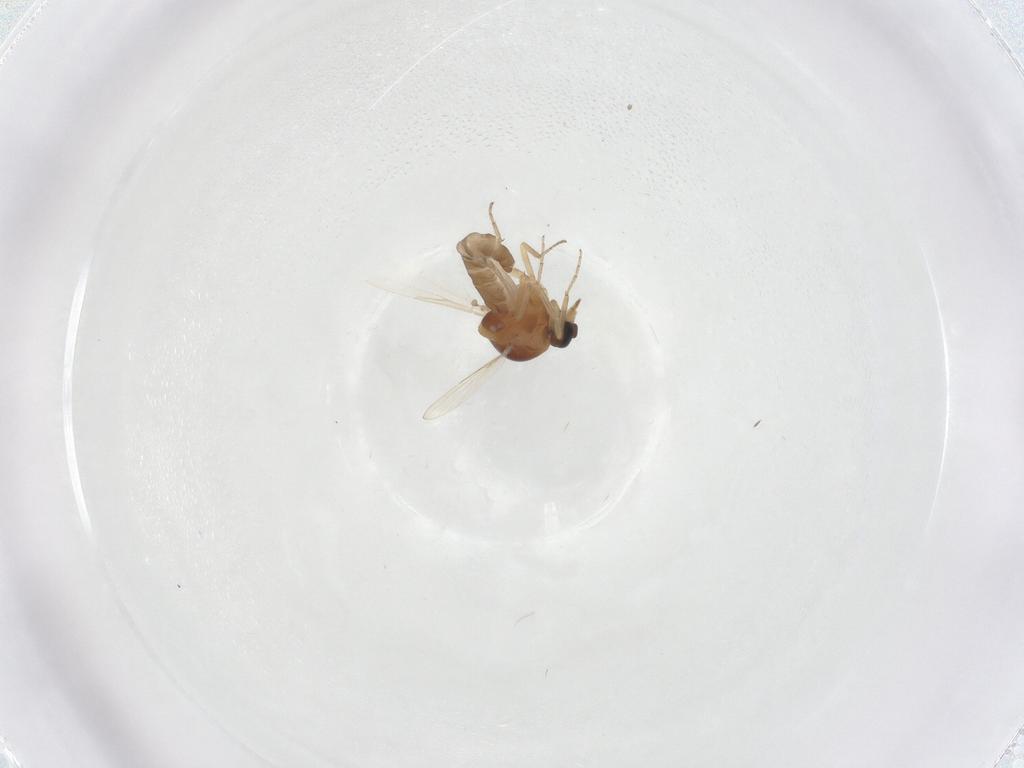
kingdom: Animalia
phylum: Arthropoda
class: Insecta
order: Diptera
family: Ceratopogonidae
